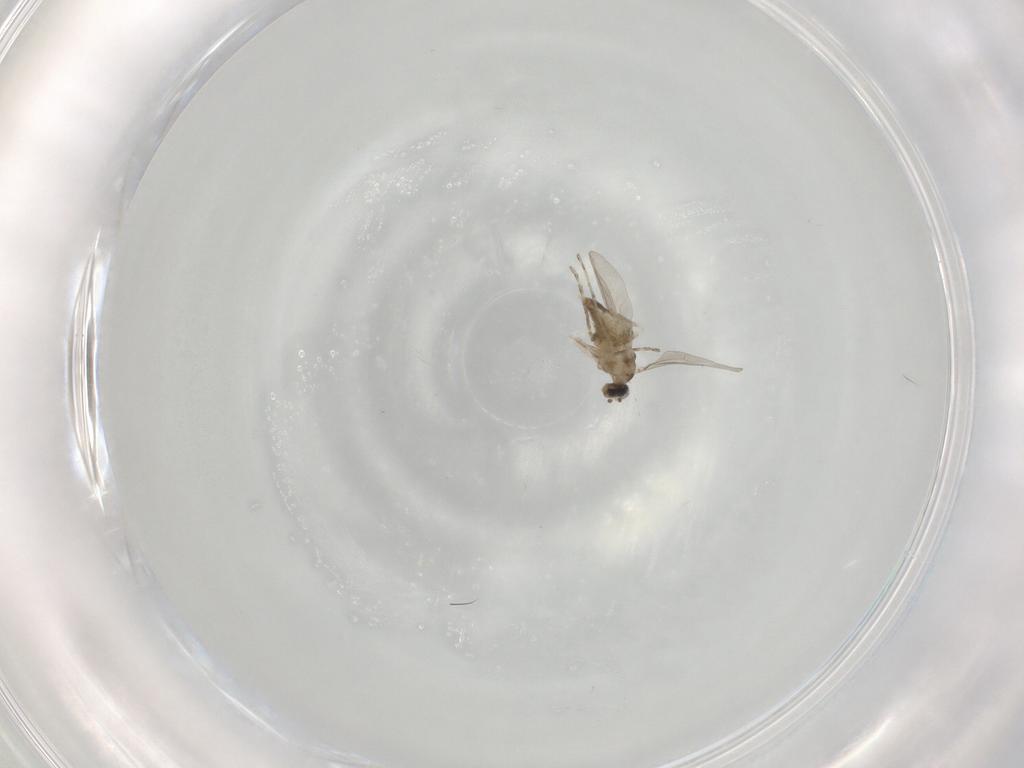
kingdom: Animalia
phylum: Arthropoda
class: Insecta
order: Diptera
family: Cecidomyiidae
